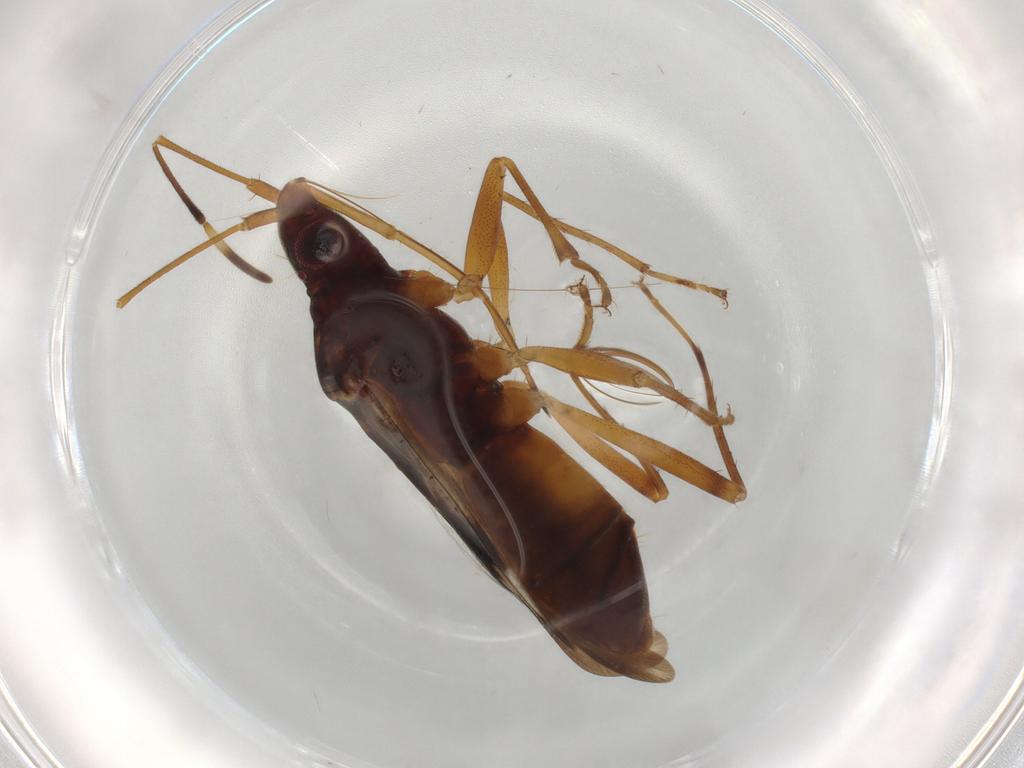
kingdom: Animalia
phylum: Arthropoda
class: Insecta
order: Hemiptera
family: Rhyparochromidae
